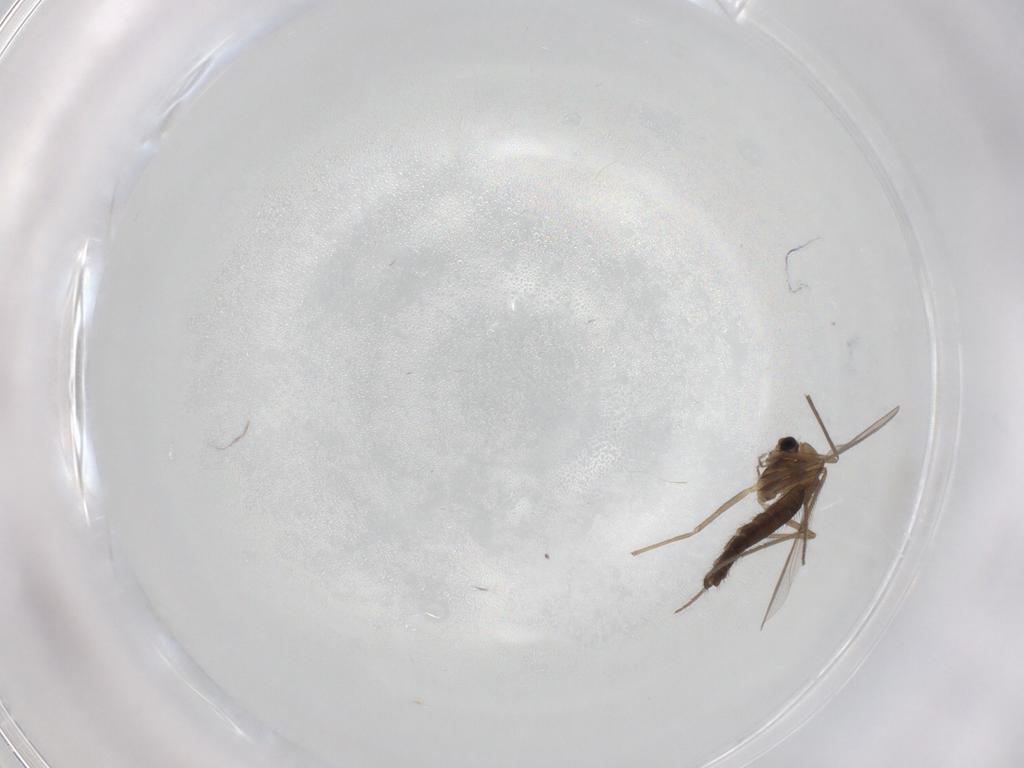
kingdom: Animalia
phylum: Arthropoda
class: Insecta
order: Diptera
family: Chironomidae
